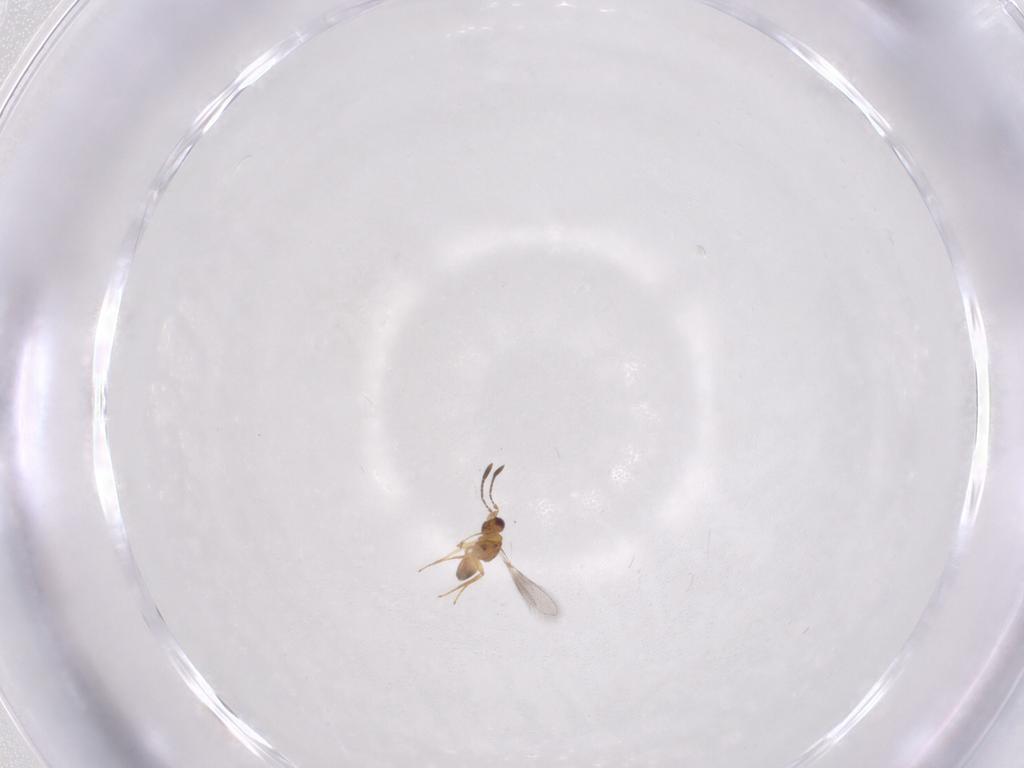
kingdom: Animalia
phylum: Arthropoda
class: Insecta
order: Hymenoptera
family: Mymaridae
